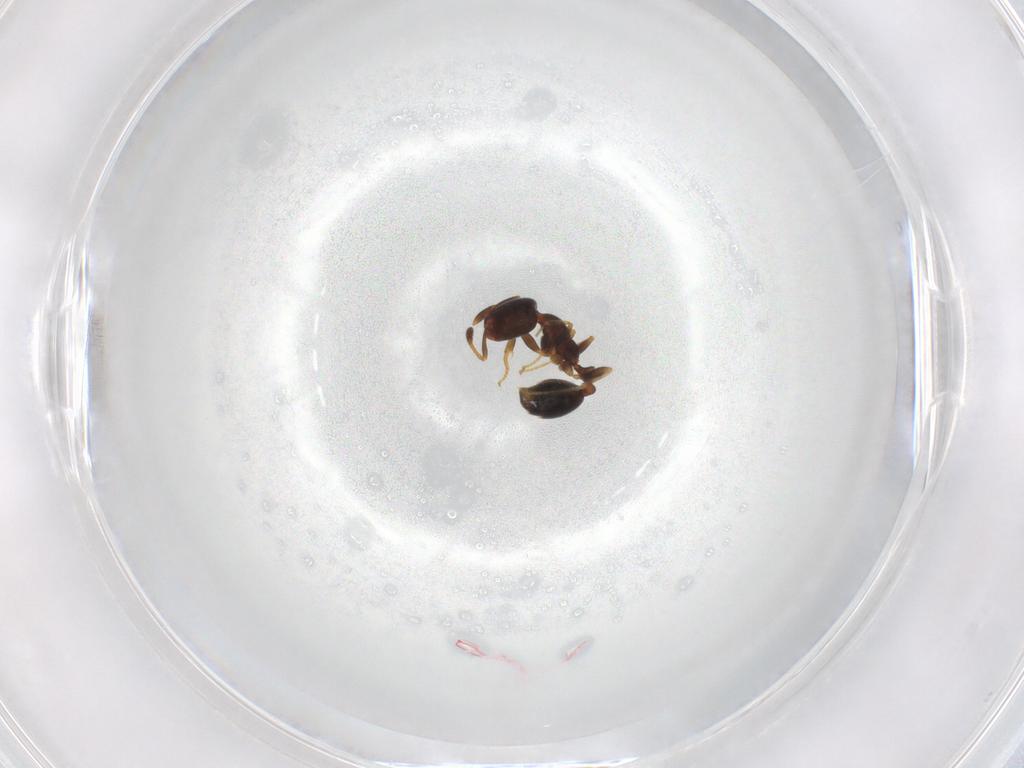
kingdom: Animalia
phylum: Arthropoda
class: Insecta
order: Hymenoptera
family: Formicidae
